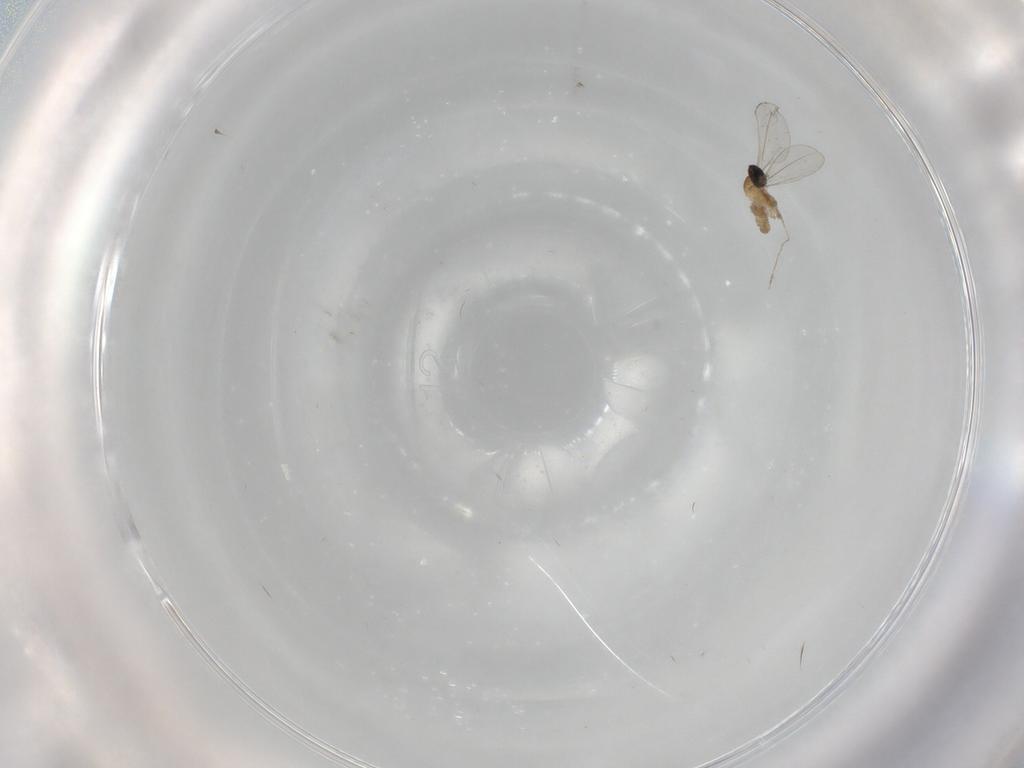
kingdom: Animalia
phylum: Arthropoda
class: Insecta
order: Diptera
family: Cecidomyiidae
